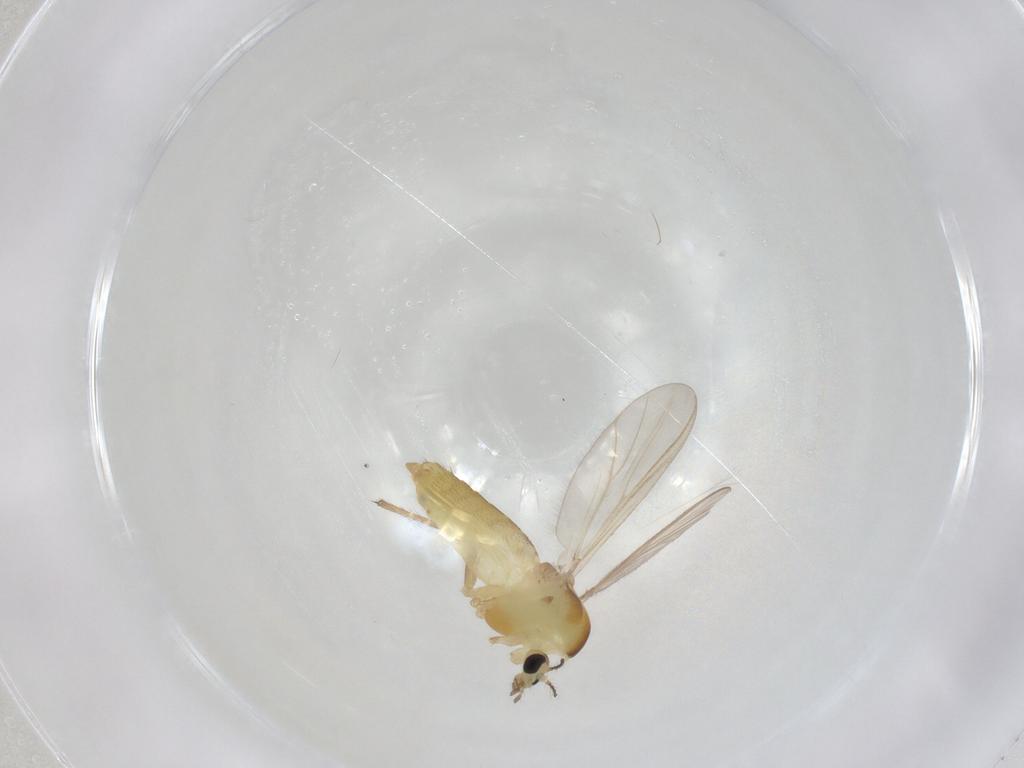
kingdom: Animalia
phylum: Arthropoda
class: Insecta
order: Diptera
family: Chironomidae
